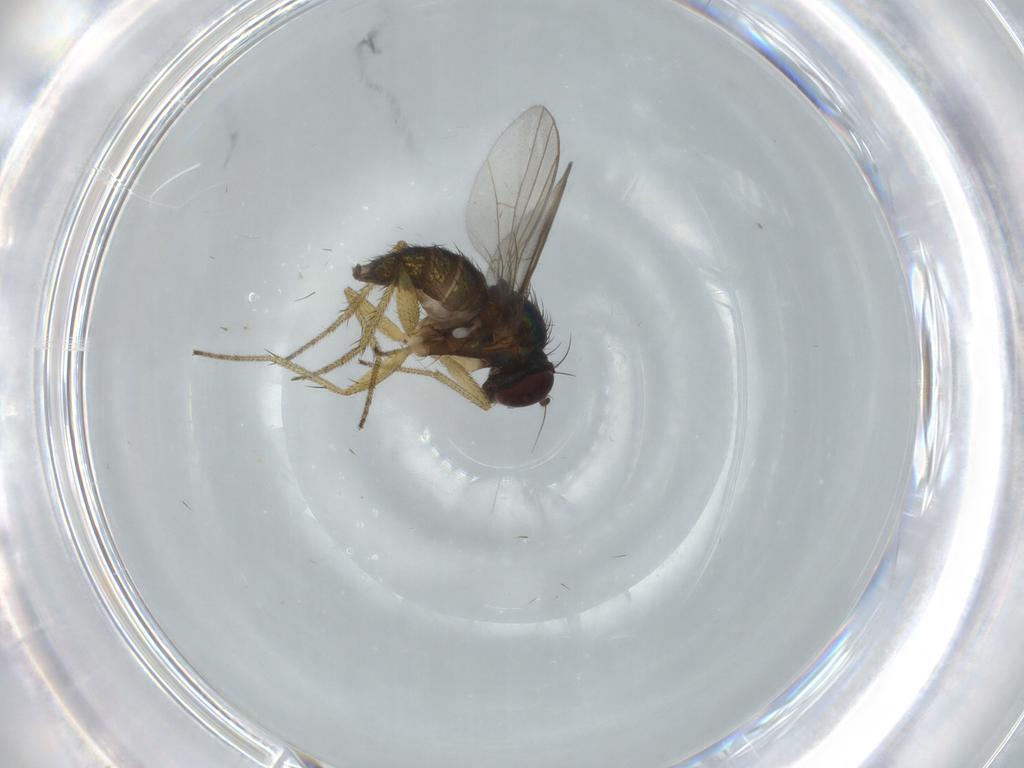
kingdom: Animalia
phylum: Arthropoda
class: Insecta
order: Diptera
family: Dolichopodidae
